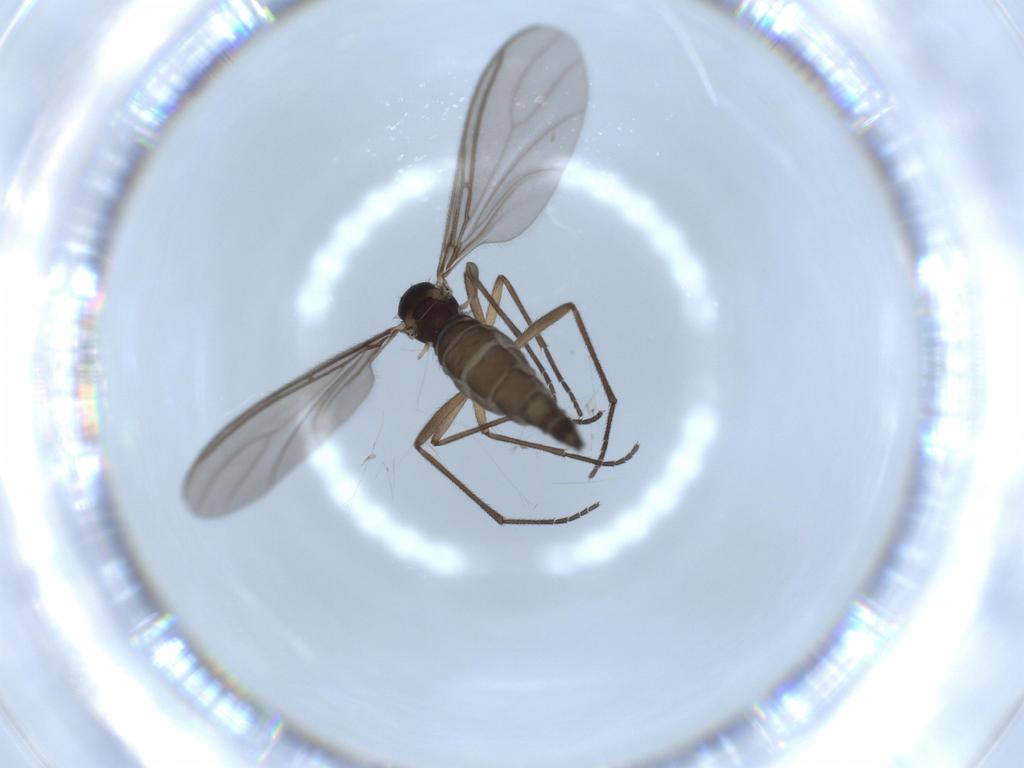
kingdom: Animalia
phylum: Arthropoda
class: Insecta
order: Diptera
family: Sciaridae
